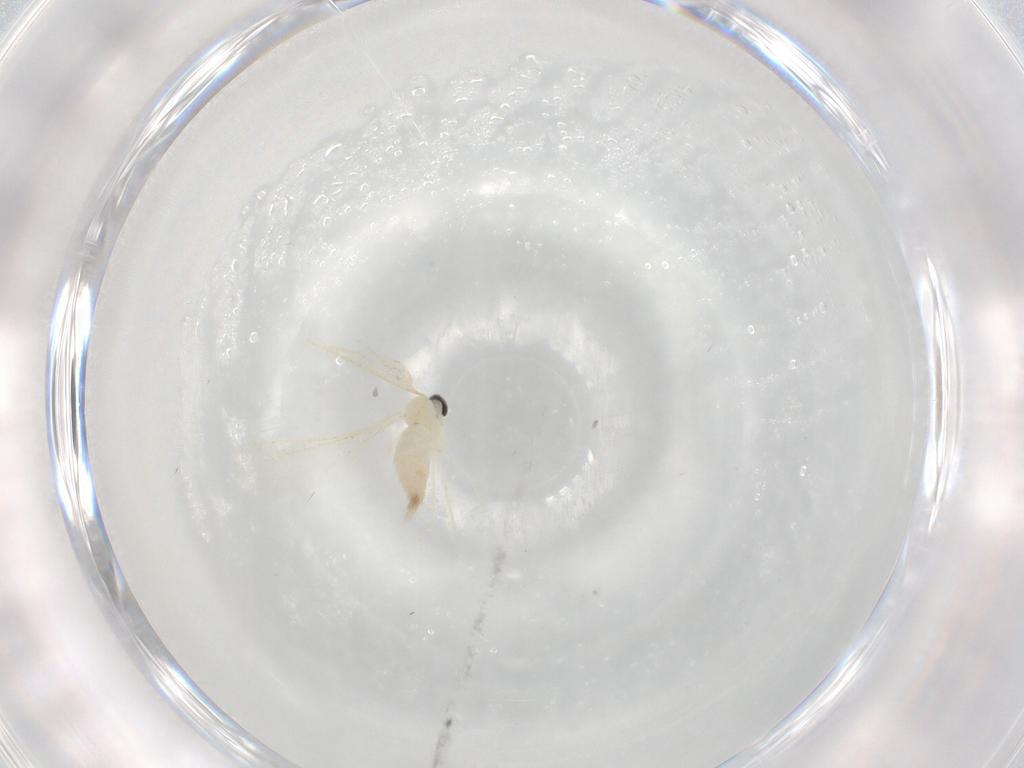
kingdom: Animalia
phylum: Arthropoda
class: Insecta
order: Diptera
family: Cecidomyiidae
